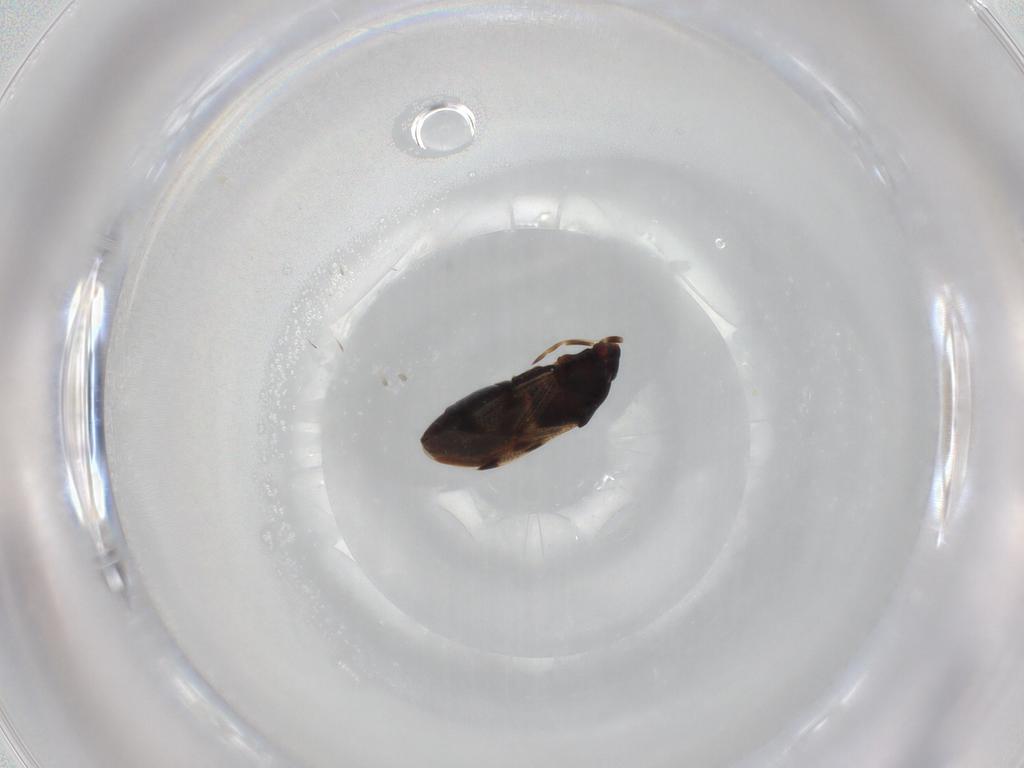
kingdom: Animalia
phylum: Arthropoda
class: Insecta
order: Hemiptera
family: Rhyparochromidae
